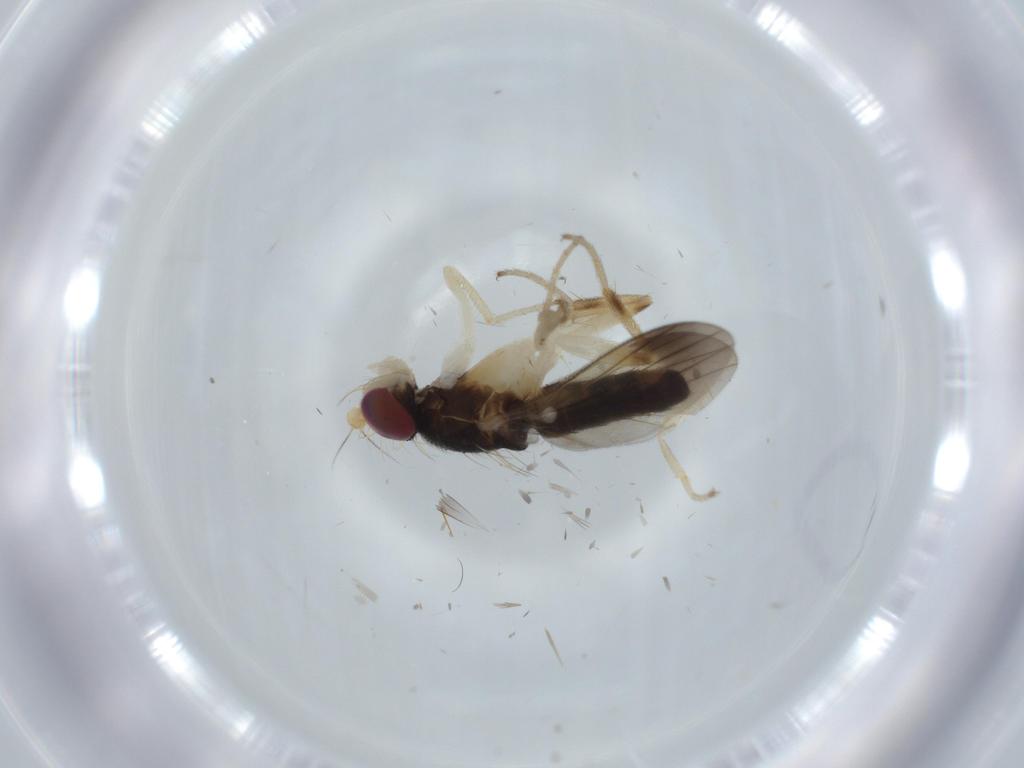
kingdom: Animalia
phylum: Arthropoda
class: Insecta
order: Diptera
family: Clusiidae
